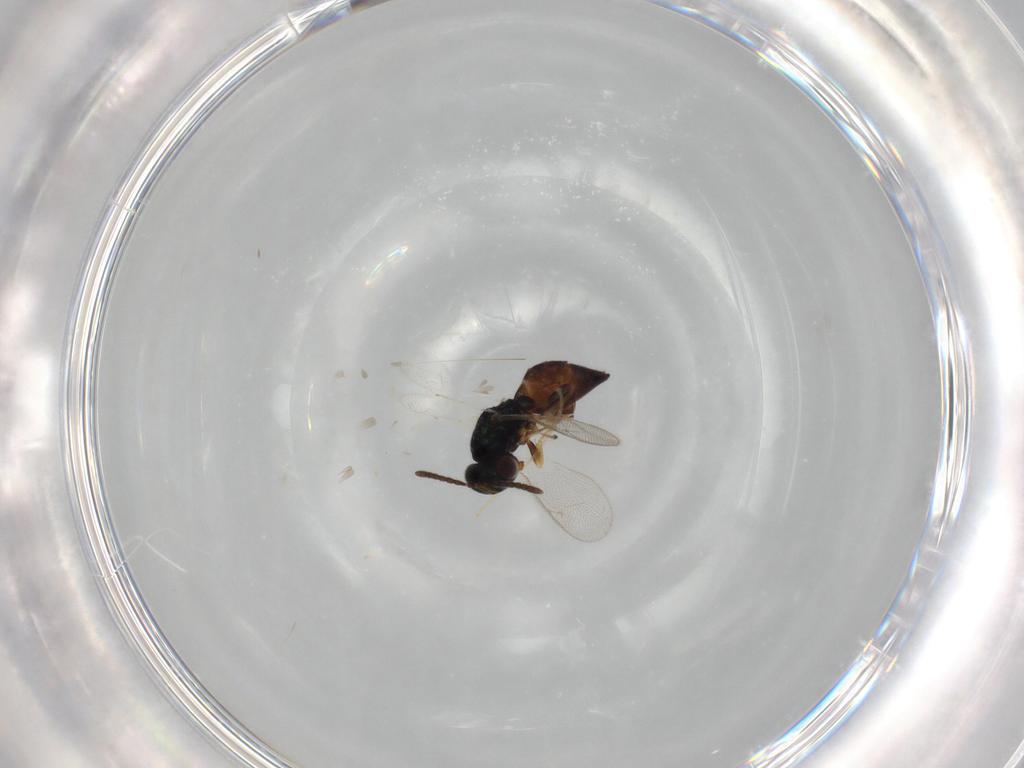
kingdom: Animalia
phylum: Arthropoda
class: Insecta
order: Hymenoptera
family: Pteromalidae
